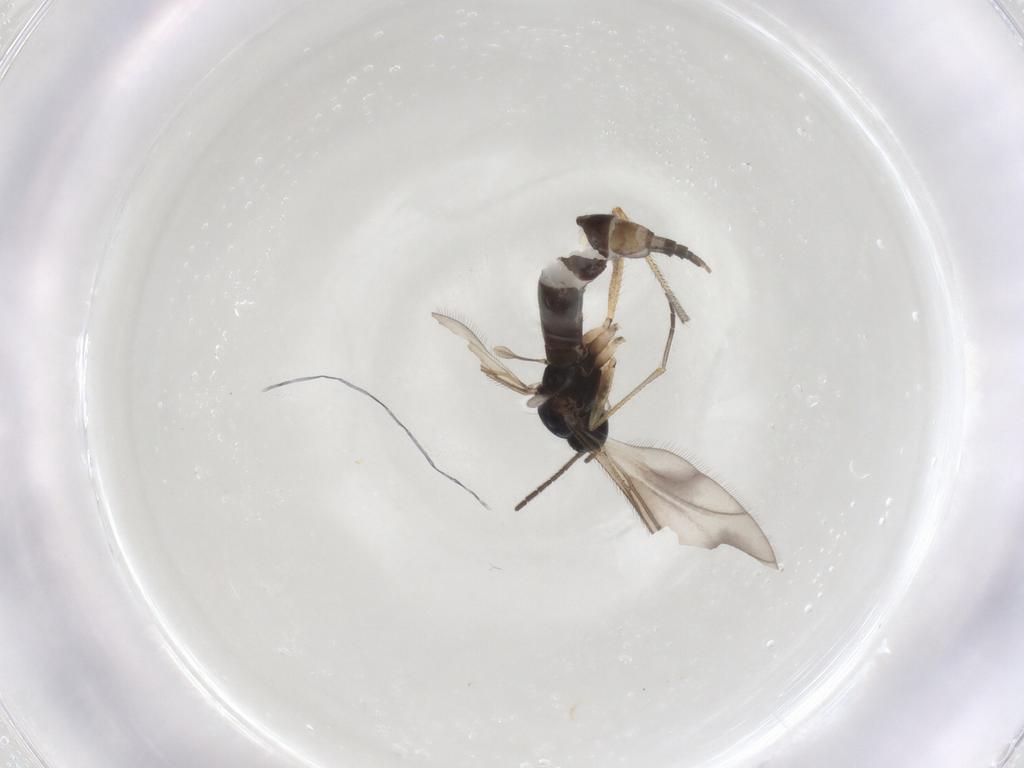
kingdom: Animalia
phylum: Arthropoda
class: Insecta
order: Diptera
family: Sciaridae
